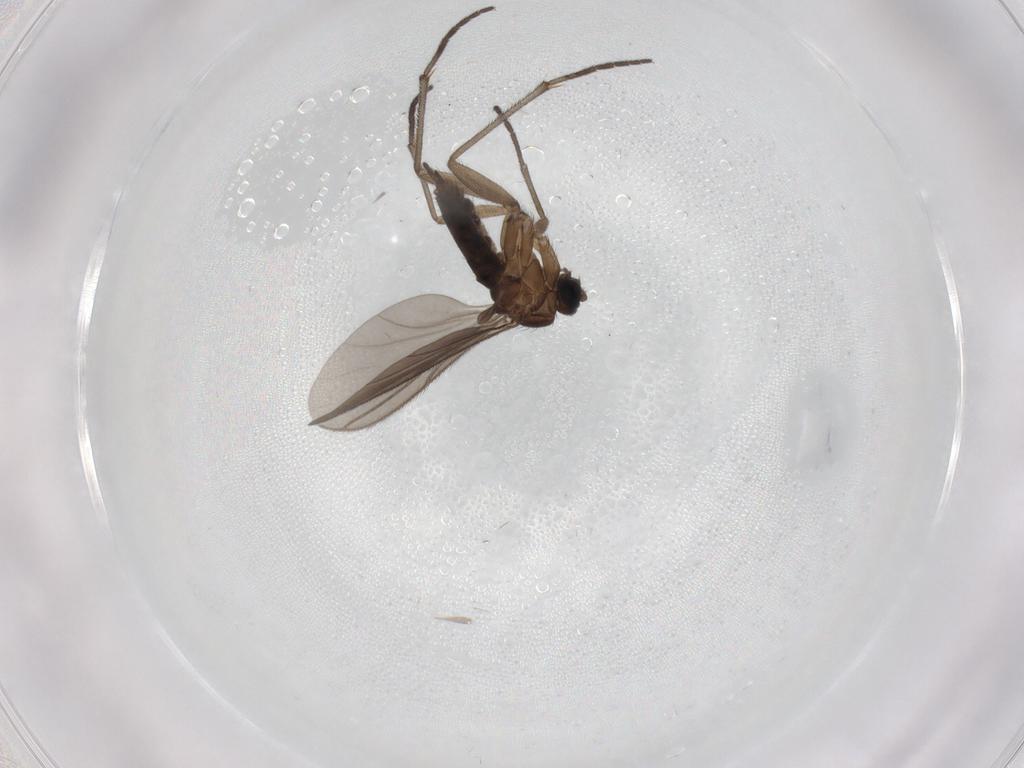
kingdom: Animalia
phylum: Arthropoda
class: Insecta
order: Diptera
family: Sciaridae
